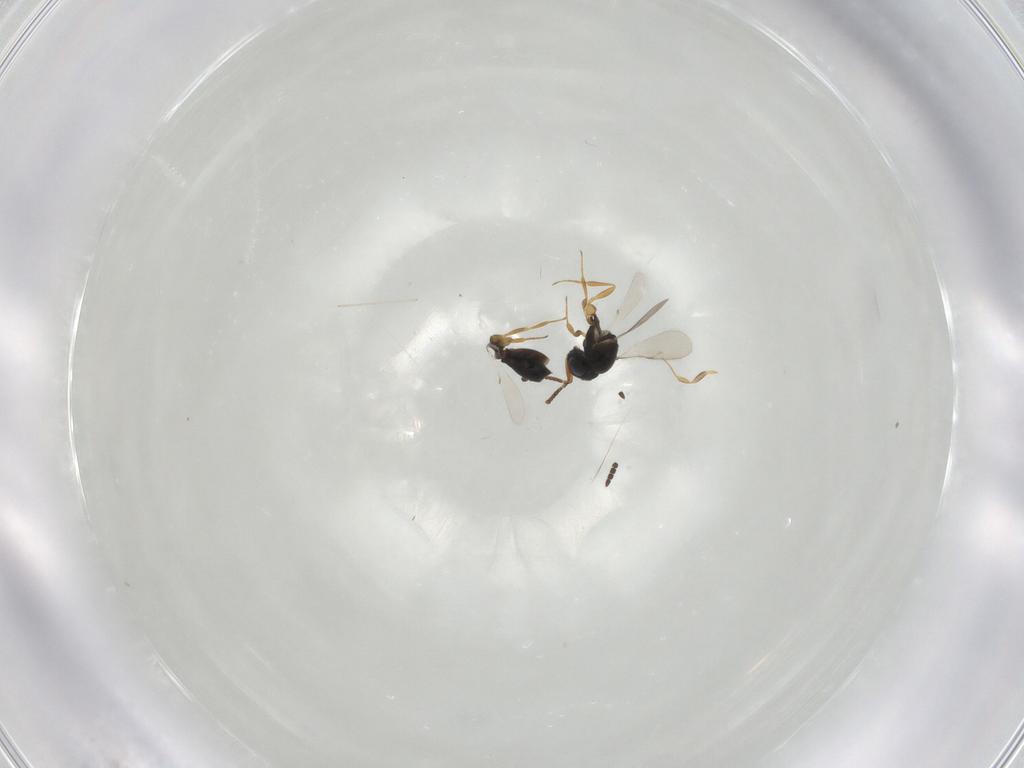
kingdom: Animalia
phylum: Arthropoda
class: Insecta
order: Hymenoptera
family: Scelionidae
